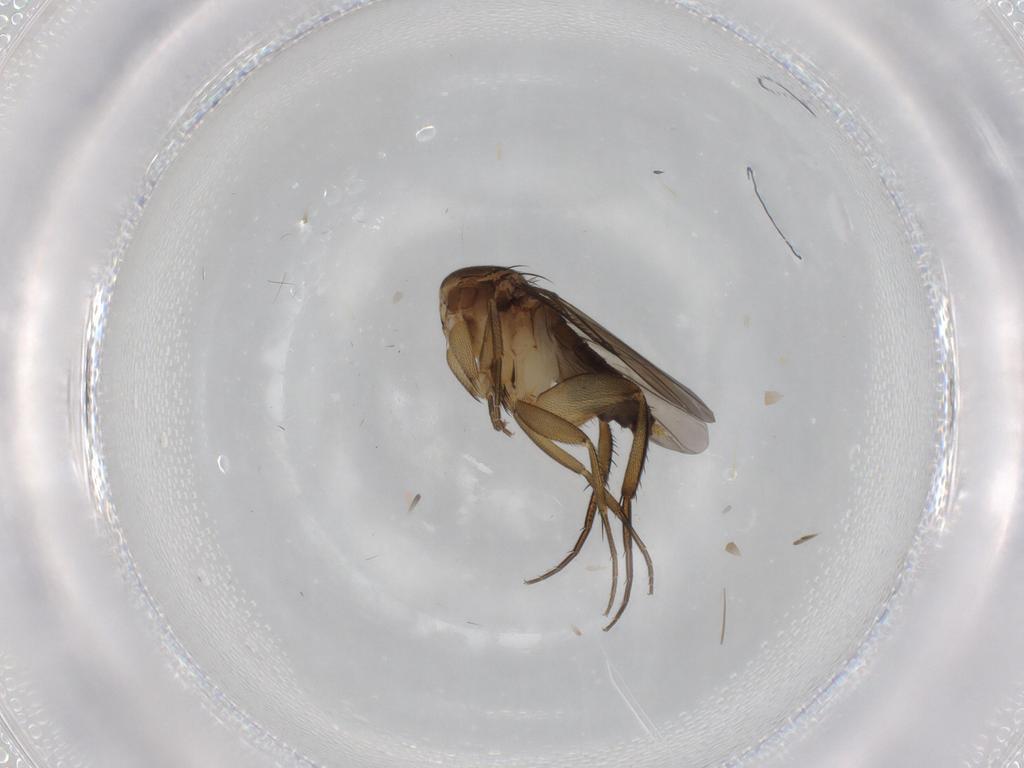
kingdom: Animalia
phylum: Arthropoda
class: Insecta
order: Diptera
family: Phoridae
